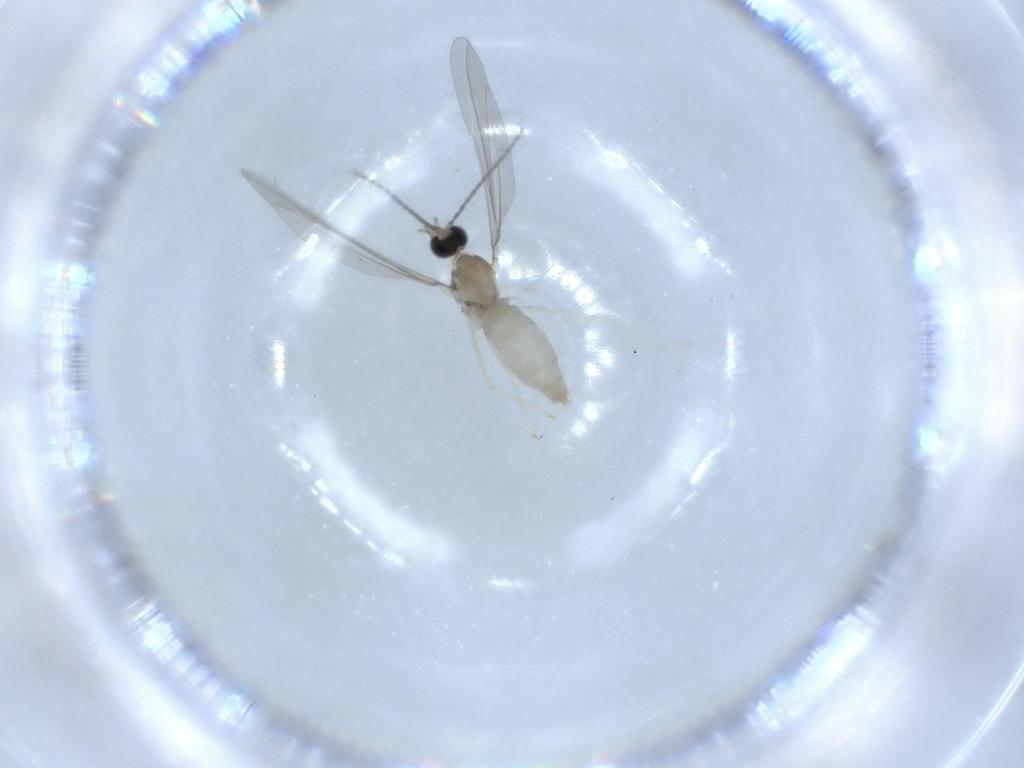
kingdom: Animalia
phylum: Arthropoda
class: Insecta
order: Diptera
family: Cecidomyiidae
